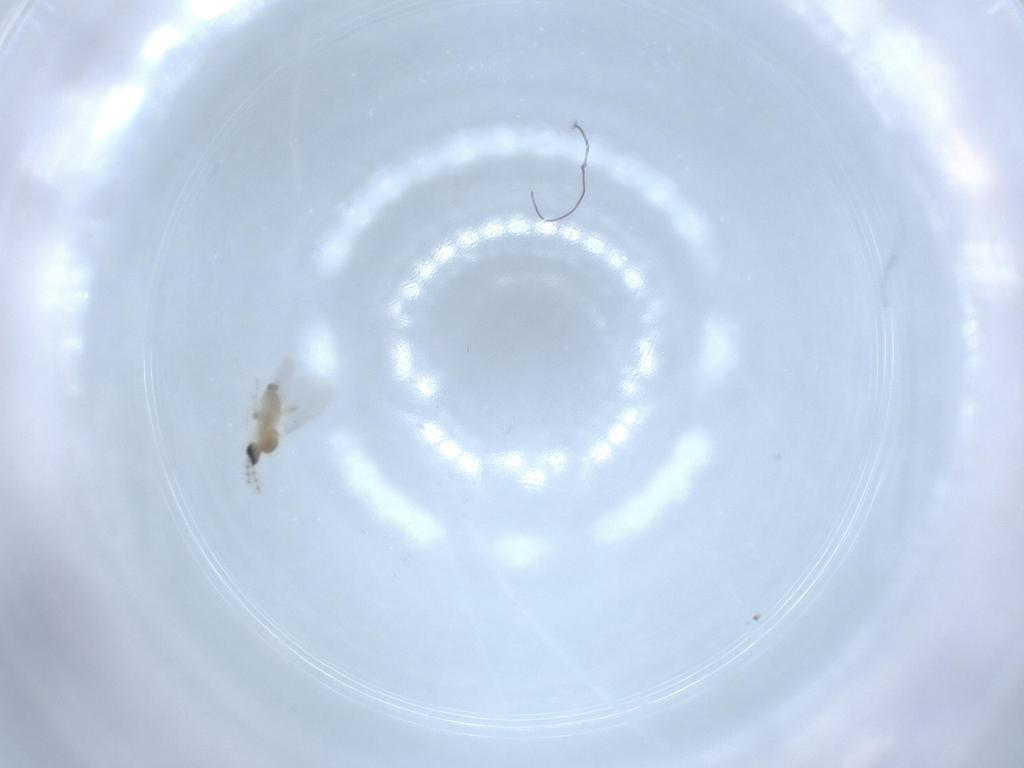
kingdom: Animalia
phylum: Arthropoda
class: Insecta
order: Diptera
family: Cecidomyiidae
